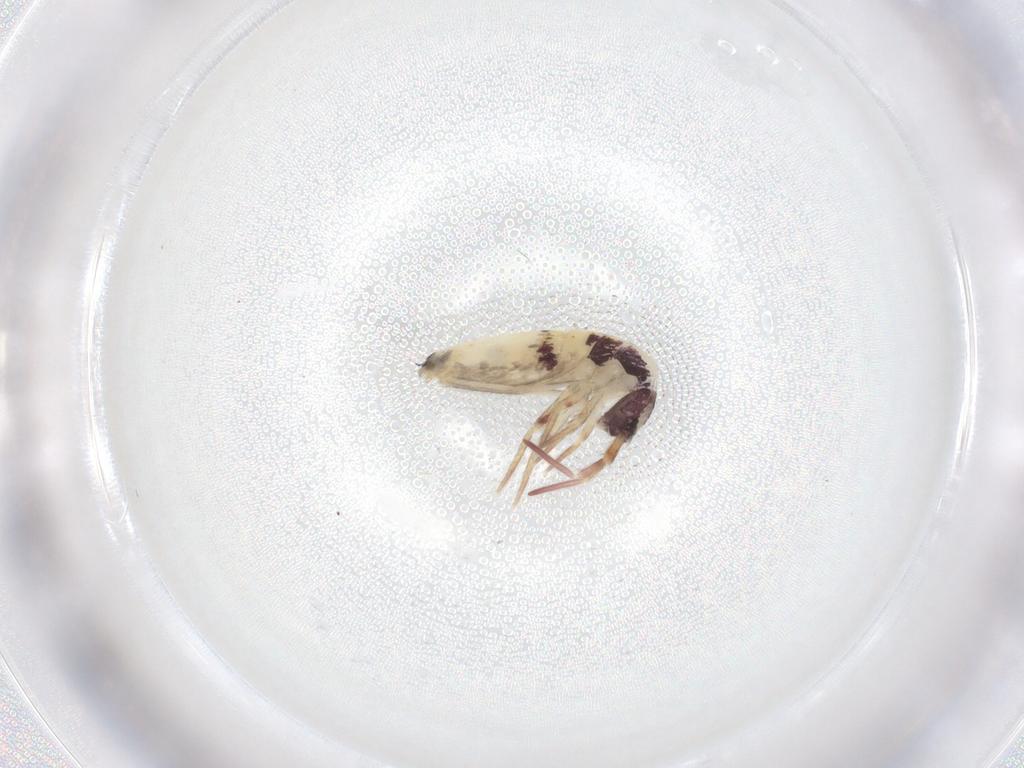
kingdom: Animalia
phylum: Arthropoda
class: Collembola
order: Entomobryomorpha
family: Entomobryidae
